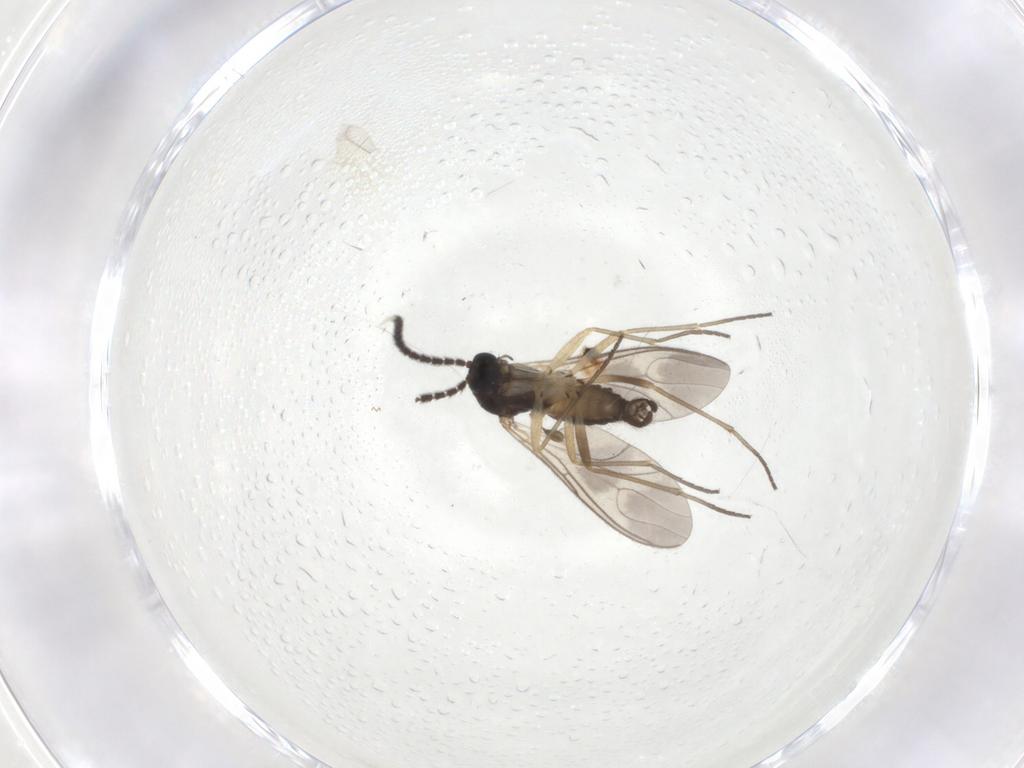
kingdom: Animalia
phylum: Arthropoda
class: Insecta
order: Diptera
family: Sciaridae
